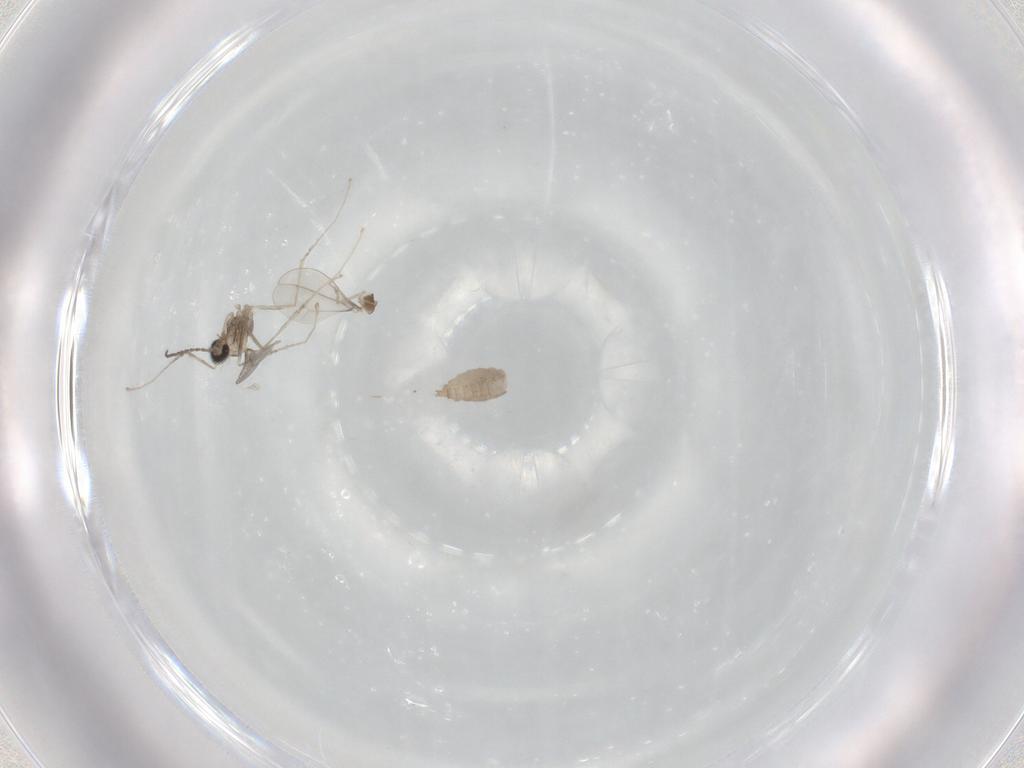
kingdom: Animalia
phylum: Arthropoda
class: Insecta
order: Diptera
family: Cecidomyiidae
